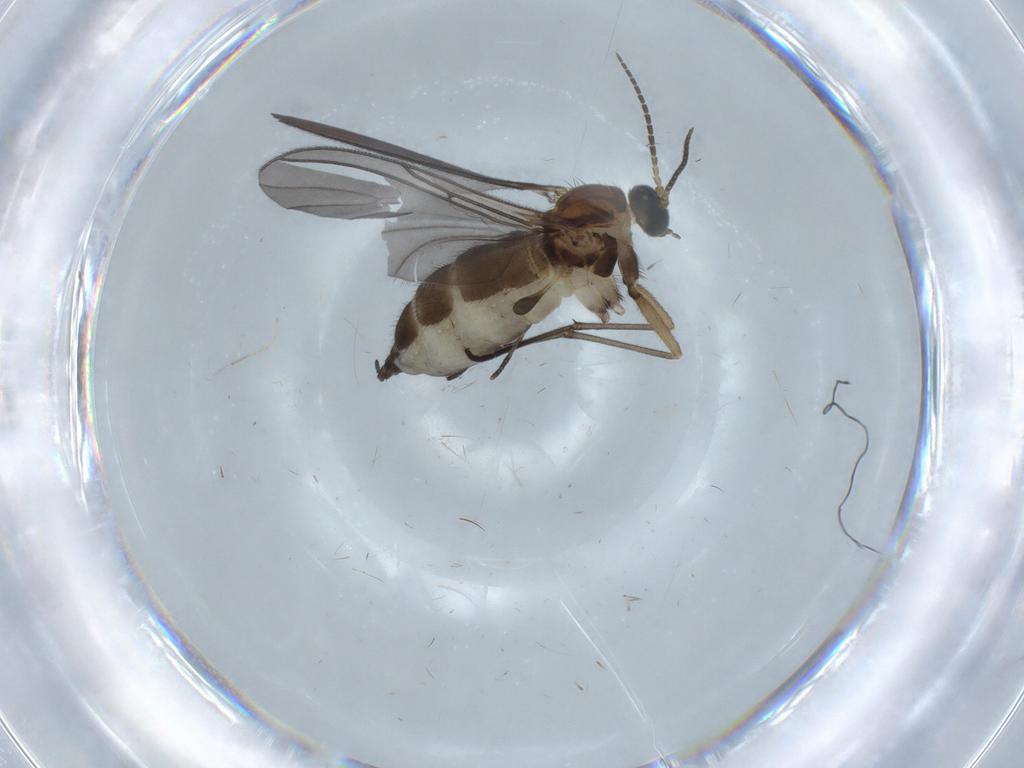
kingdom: Animalia
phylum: Arthropoda
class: Insecta
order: Diptera
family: Sciaridae
